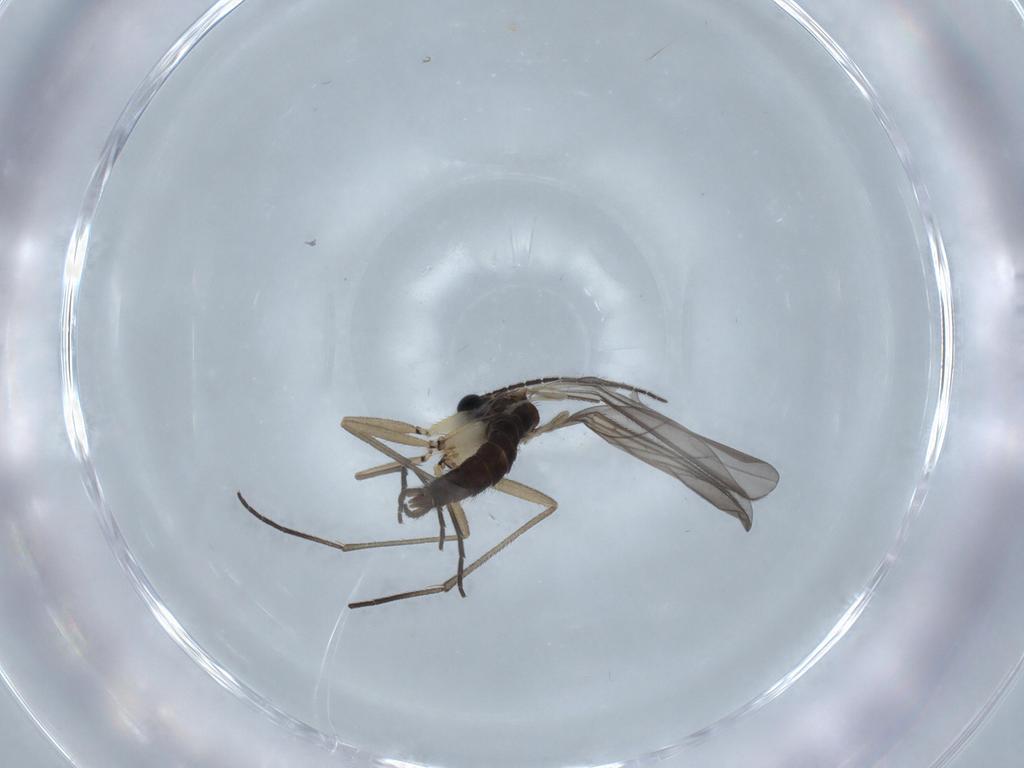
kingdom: Animalia
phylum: Arthropoda
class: Insecta
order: Diptera
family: Sciaridae
